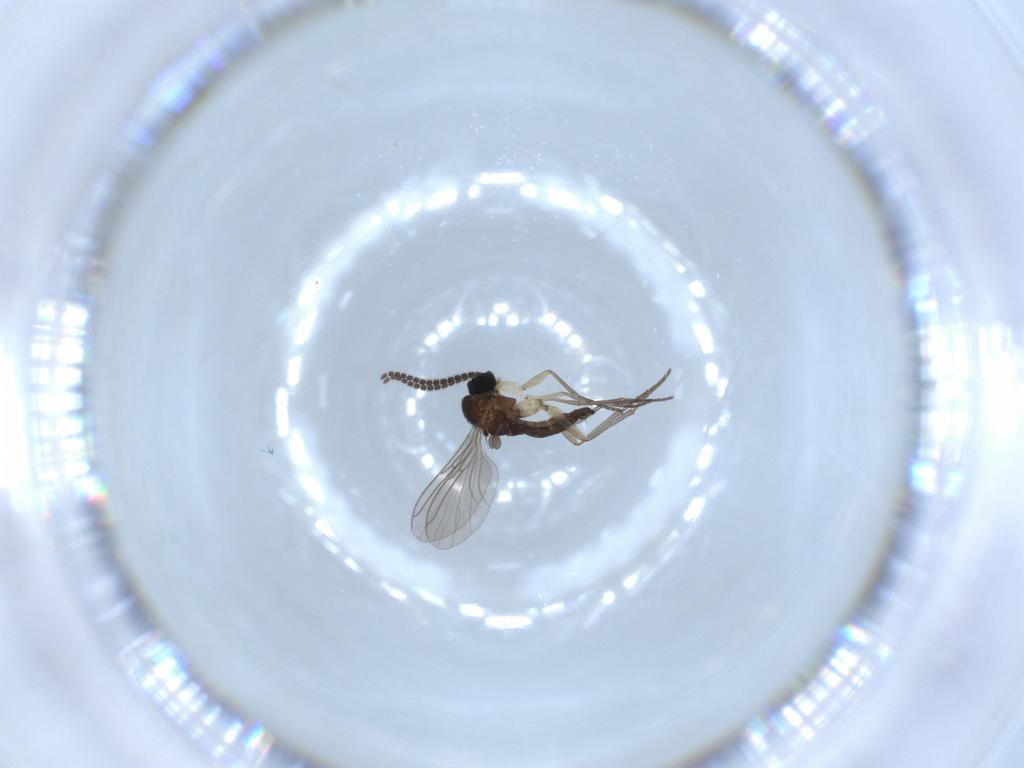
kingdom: Animalia
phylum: Arthropoda
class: Insecta
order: Diptera
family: Sciaridae
